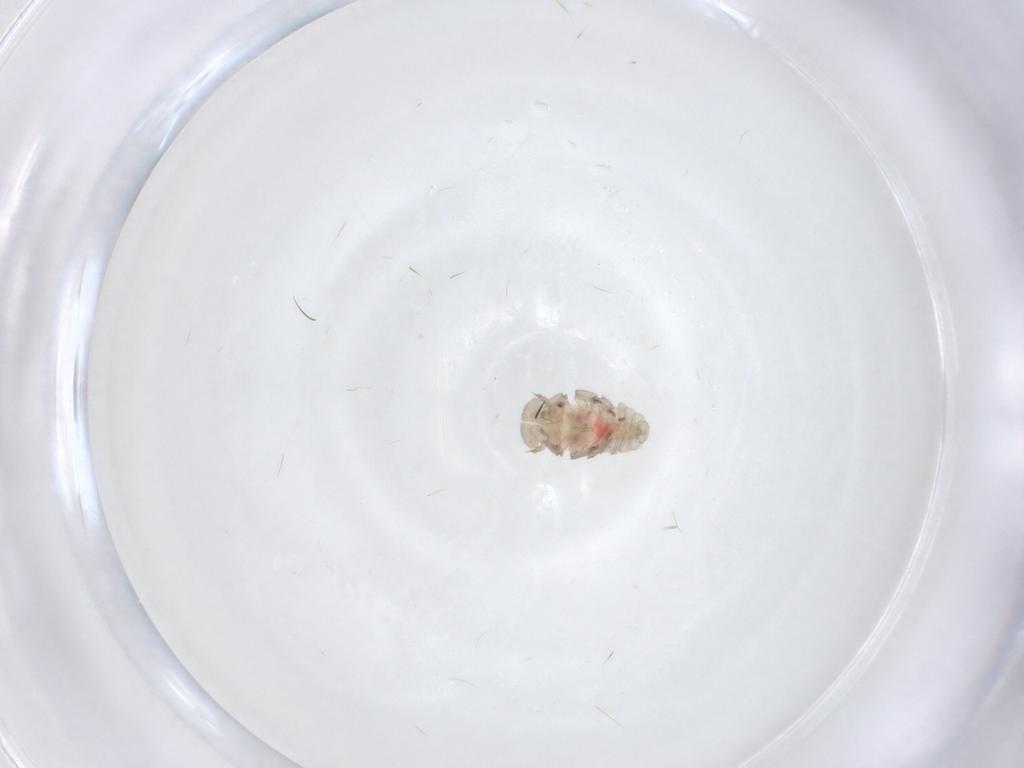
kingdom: Animalia
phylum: Arthropoda
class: Insecta
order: Hemiptera
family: Cicadellidae
